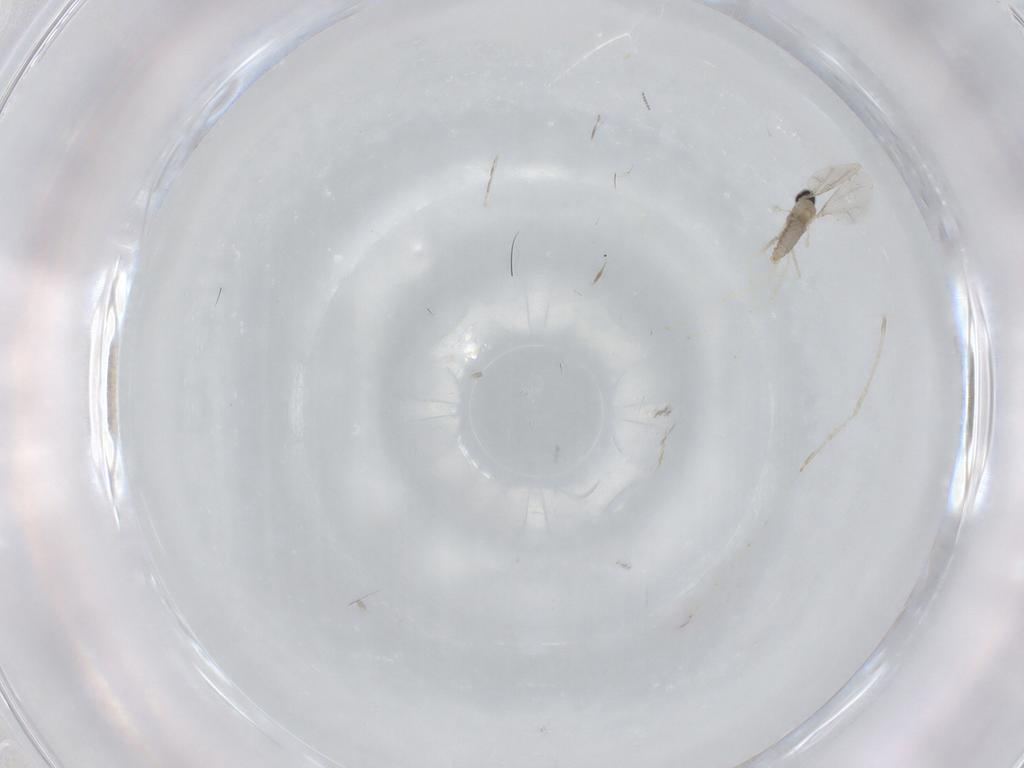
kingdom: Animalia
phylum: Arthropoda
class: Insecta
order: Diptera
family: Cecidomyiidae
